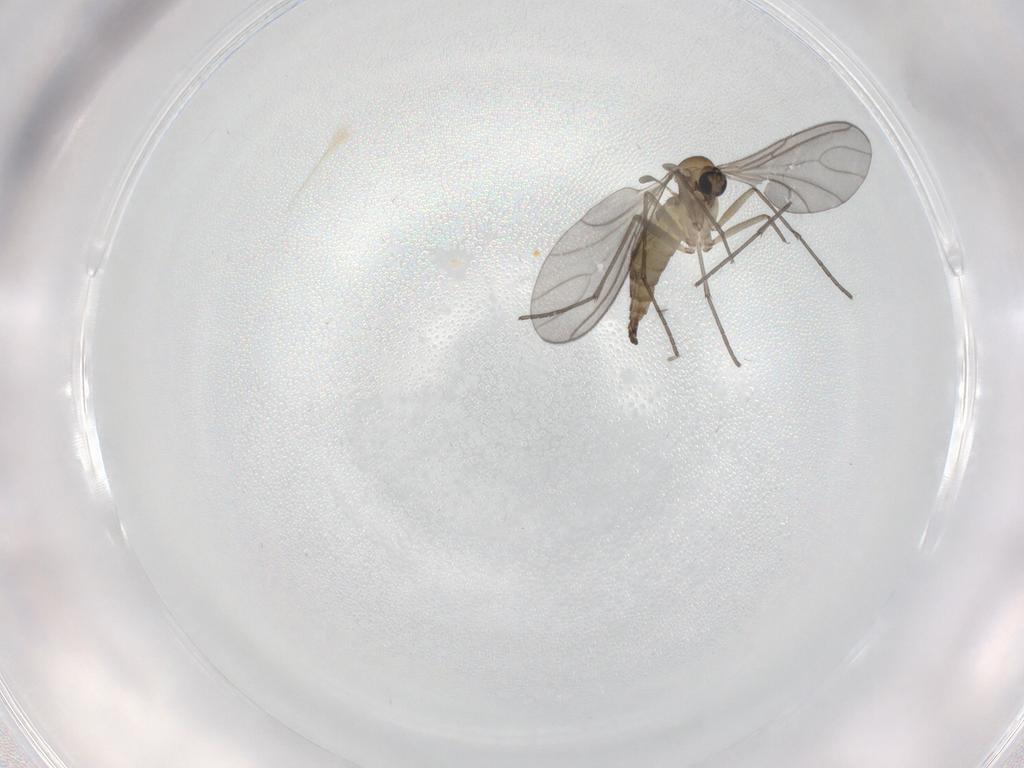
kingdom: Animalia
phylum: Arthropoda
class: Insecta
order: Diptera
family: Sciaridae
